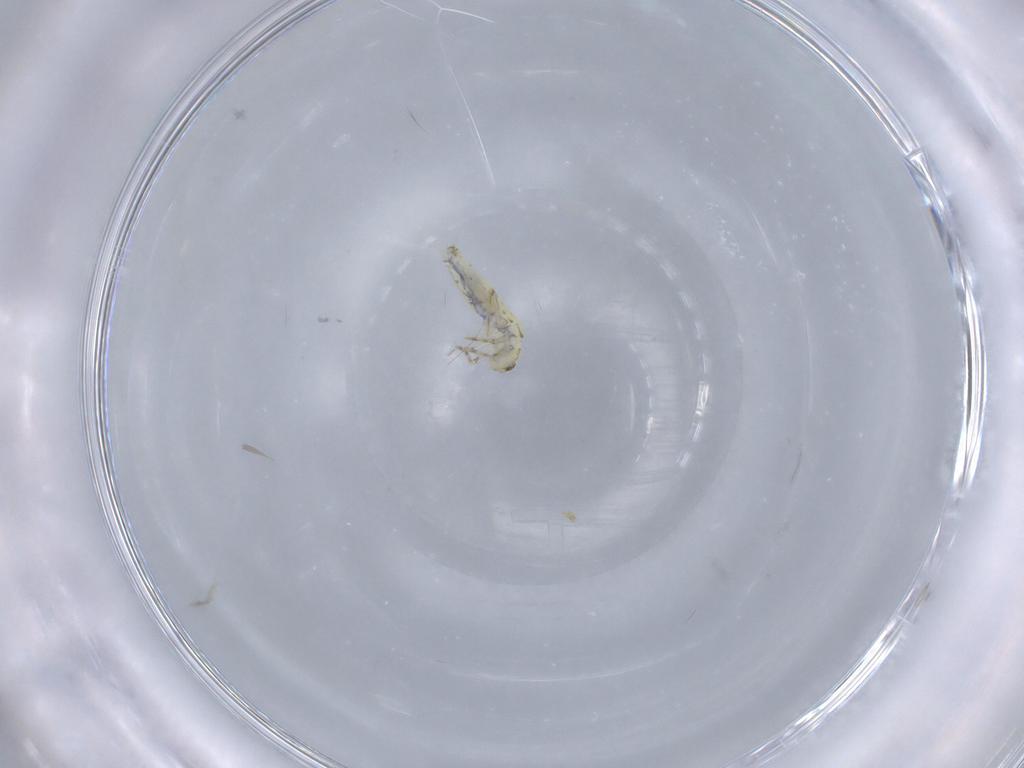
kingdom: Animalia
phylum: Arthropoda
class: Collembola
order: Entomobryomorpha
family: Paronellidae
